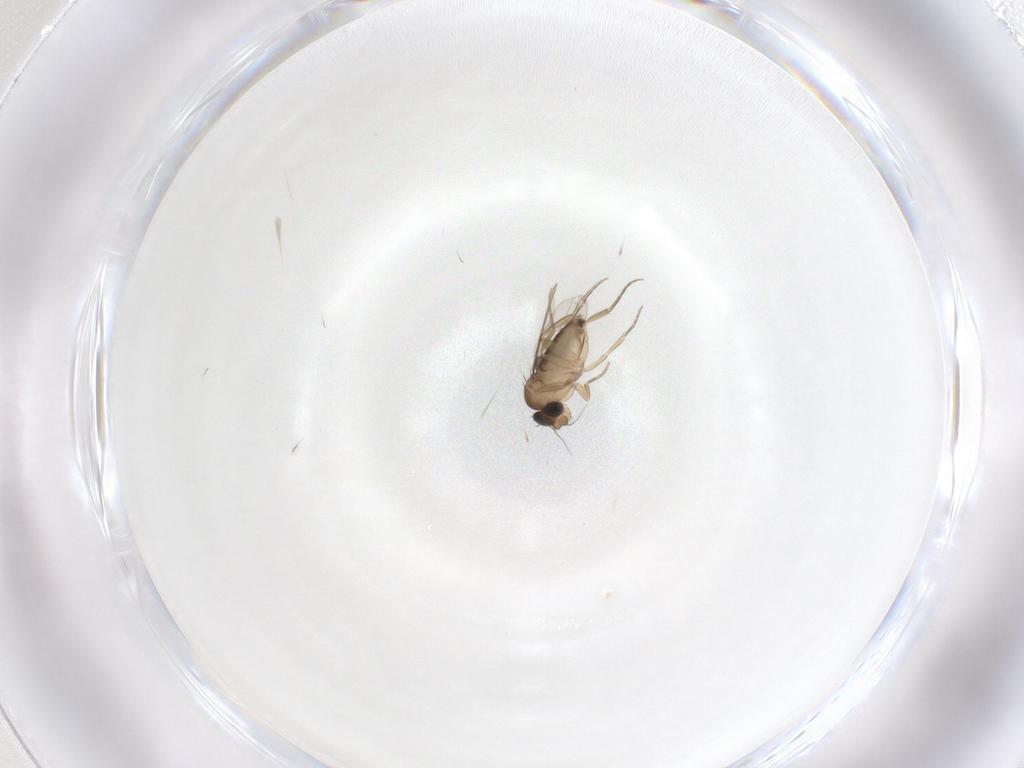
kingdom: Animalia
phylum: Arthropoda
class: Insecta
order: Diptera
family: Phoridae
